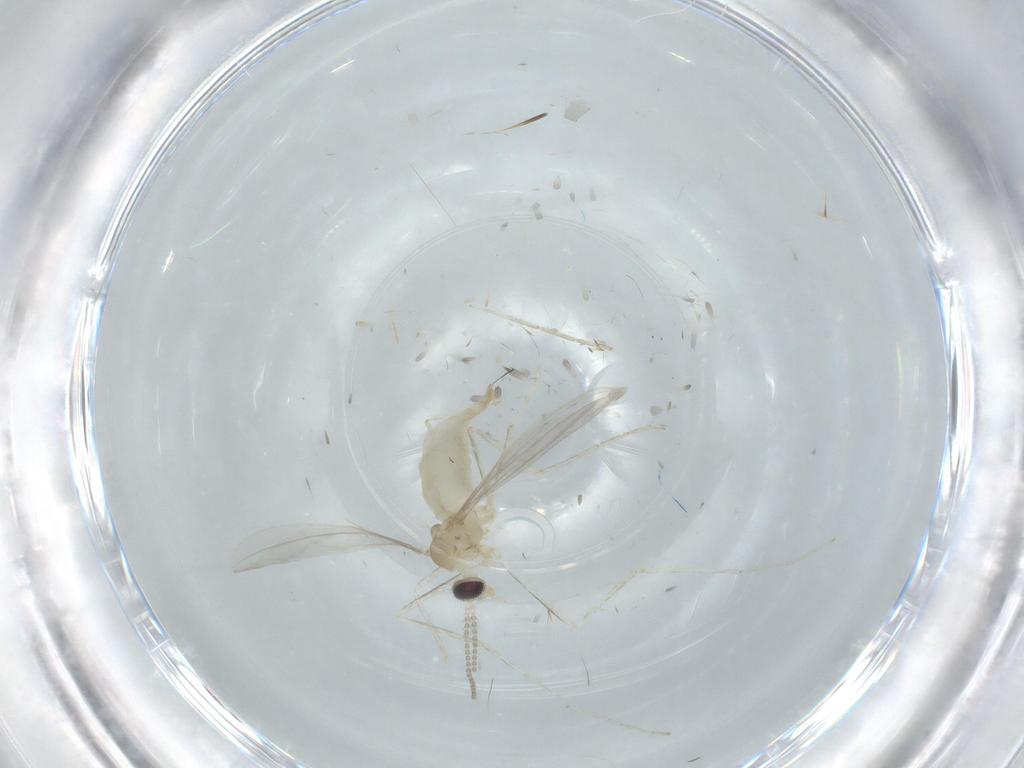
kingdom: Animalia
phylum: Arthropoda
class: Insecta
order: Diptera
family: Cecidomyiidae
